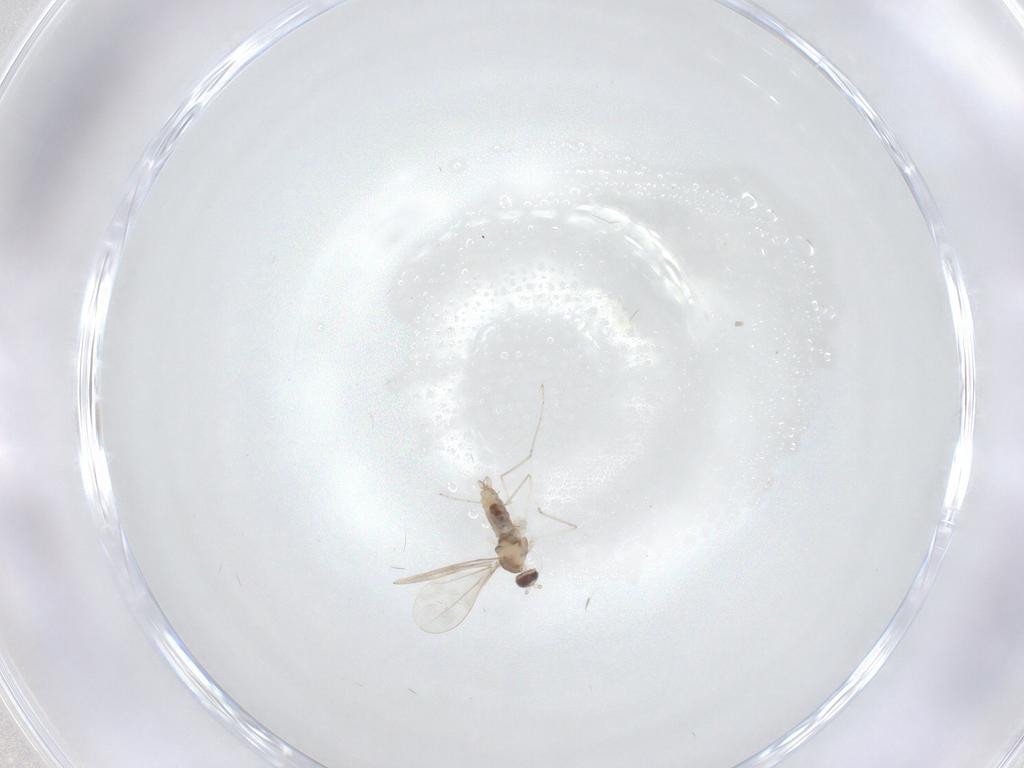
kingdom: Animalia
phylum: Arthropoda
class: Insecta
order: Diptera
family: Cecidomyiidae
